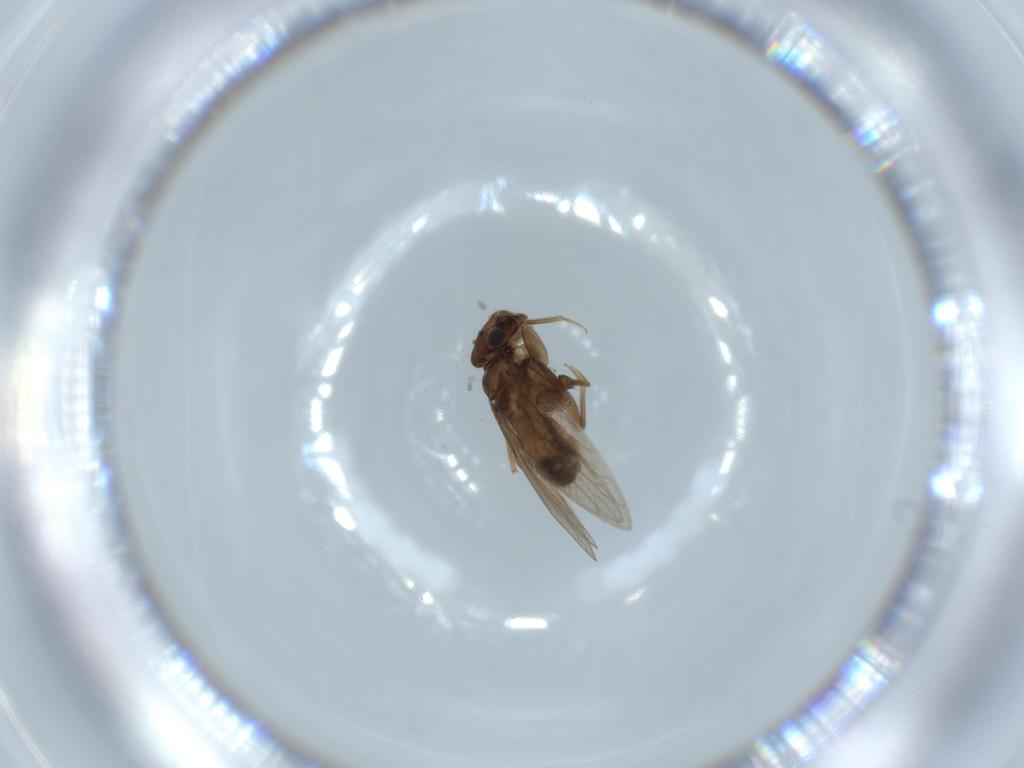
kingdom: Animalia
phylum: Arthropoda
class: Insecta
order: Psocodea
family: Lepidopsocidae
